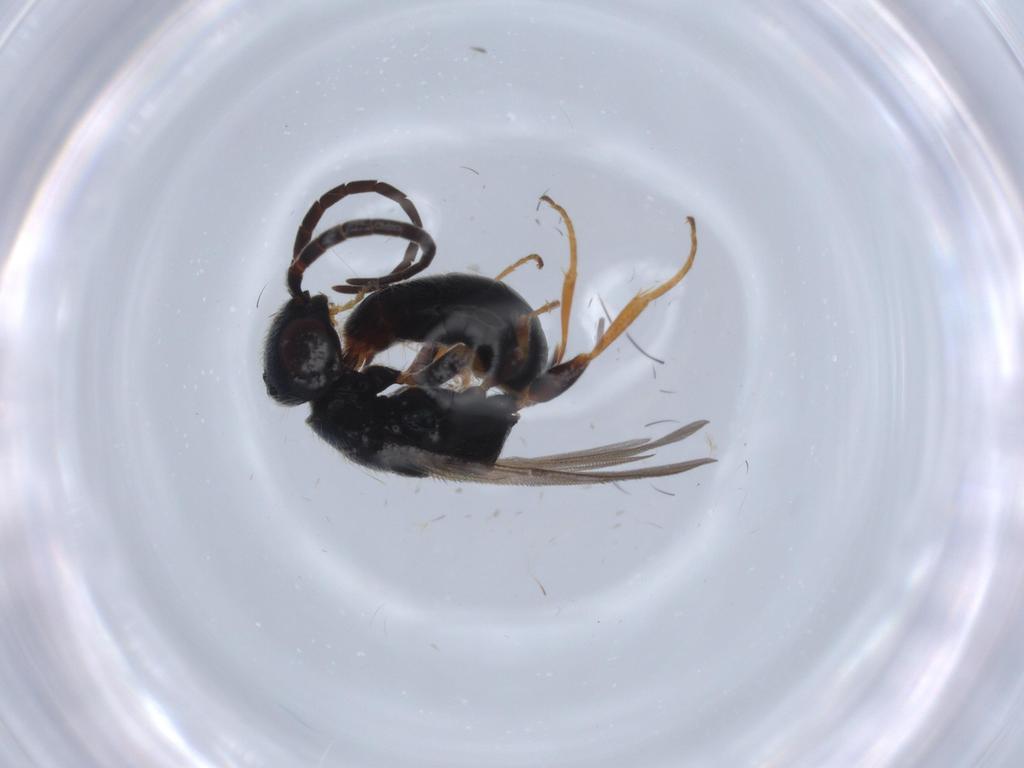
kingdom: Animalia
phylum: Arthropoda
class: Insecta
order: Hymenoptera
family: Bethylidae
